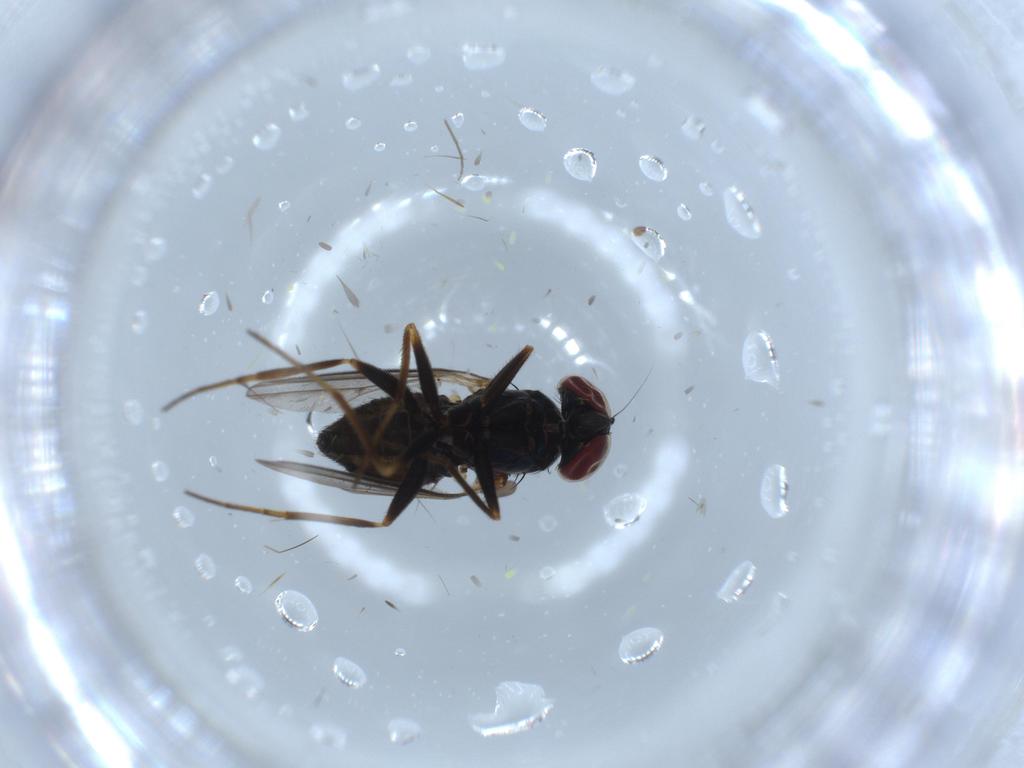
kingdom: Animalia
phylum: Arthropoda
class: Insecta
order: Diptera
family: Dolichopodidae
